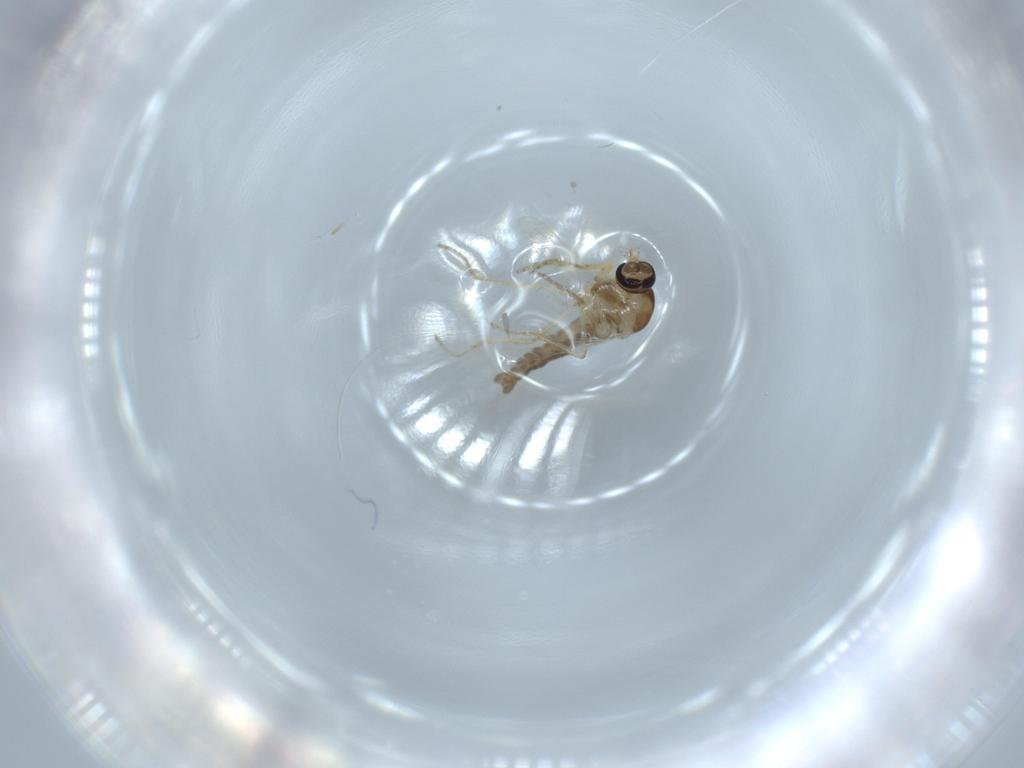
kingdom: Animalia
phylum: Arthropoda
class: Insecta
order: Diptera
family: Ceratopogonidae
